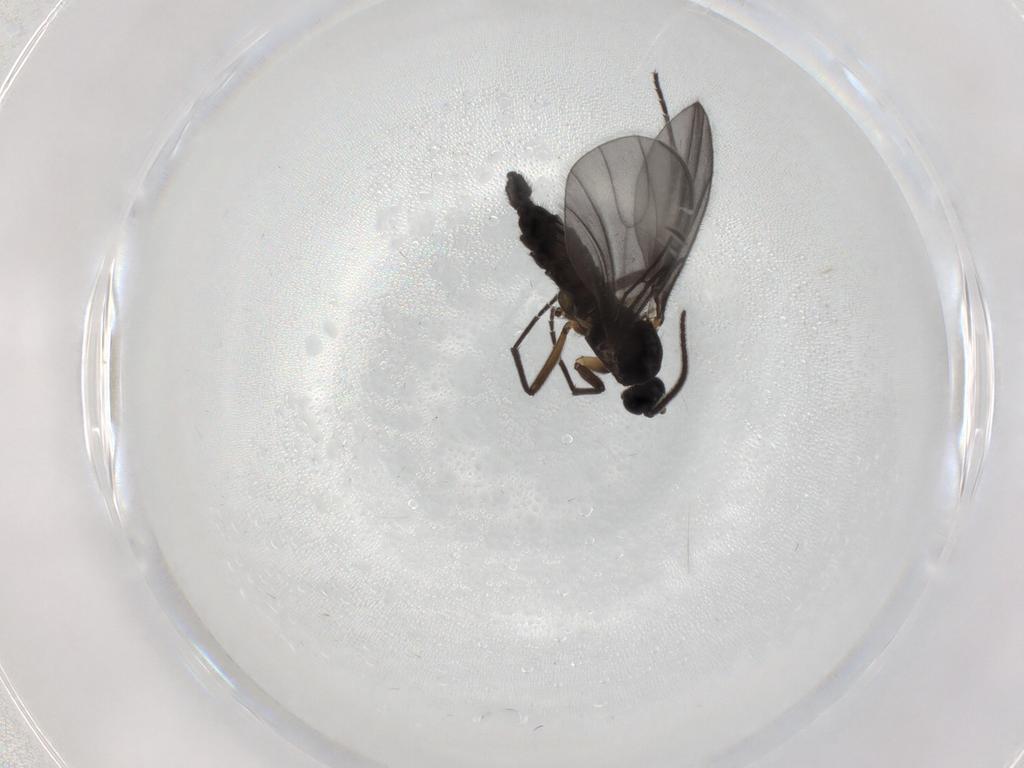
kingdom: Animalia
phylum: Arthropoda
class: Insecta
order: Diptera
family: Sciaridae
